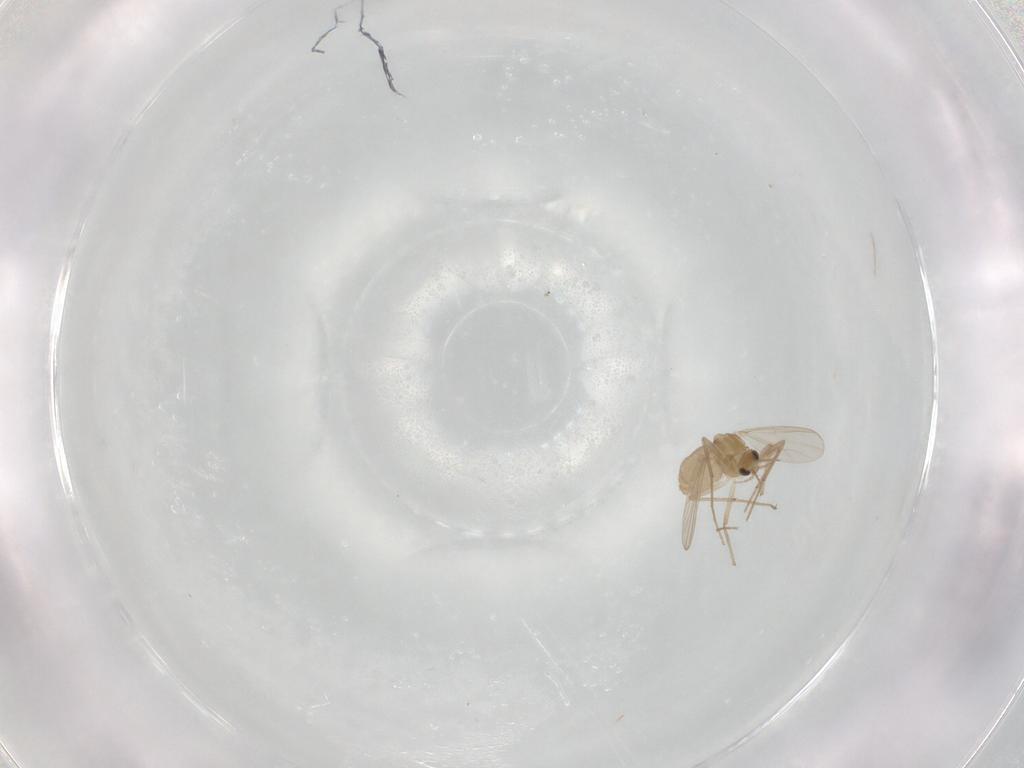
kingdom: Animalia
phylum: Arthropoda
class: Insecta
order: Diptera
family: Chironomidae
